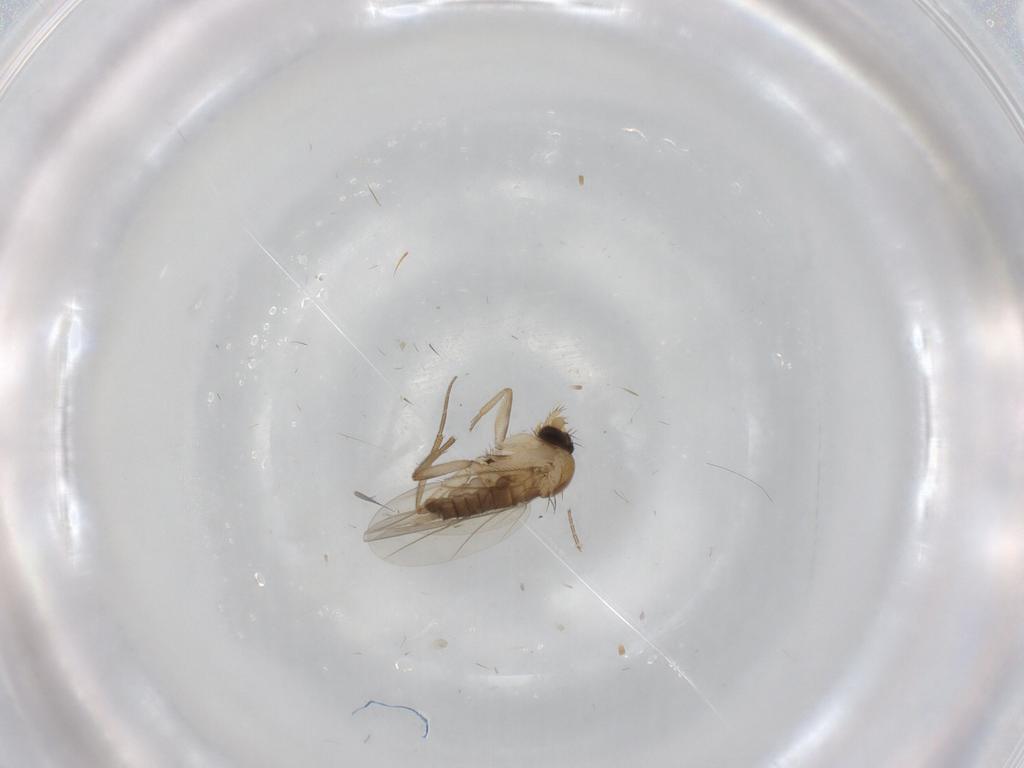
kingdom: Animalia
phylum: Arthropoda
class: Insecta
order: Diptera
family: Cecidomyiidae
